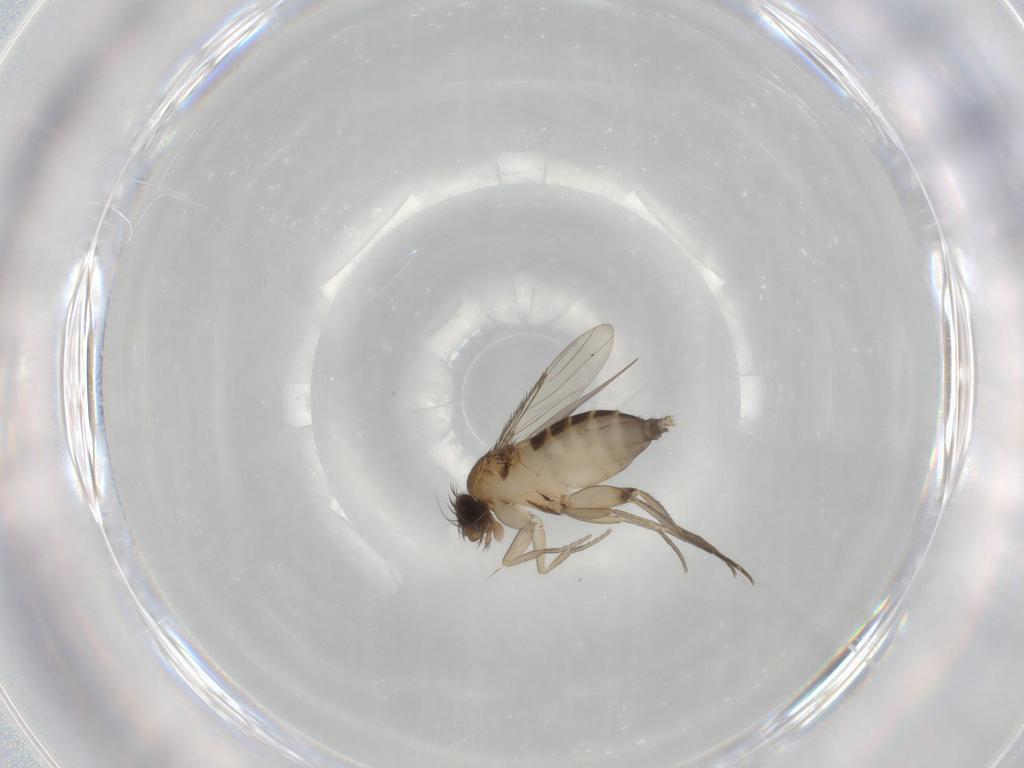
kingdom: Animalia
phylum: Arthropoda
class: Insecta
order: Diptera
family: Phoridae
